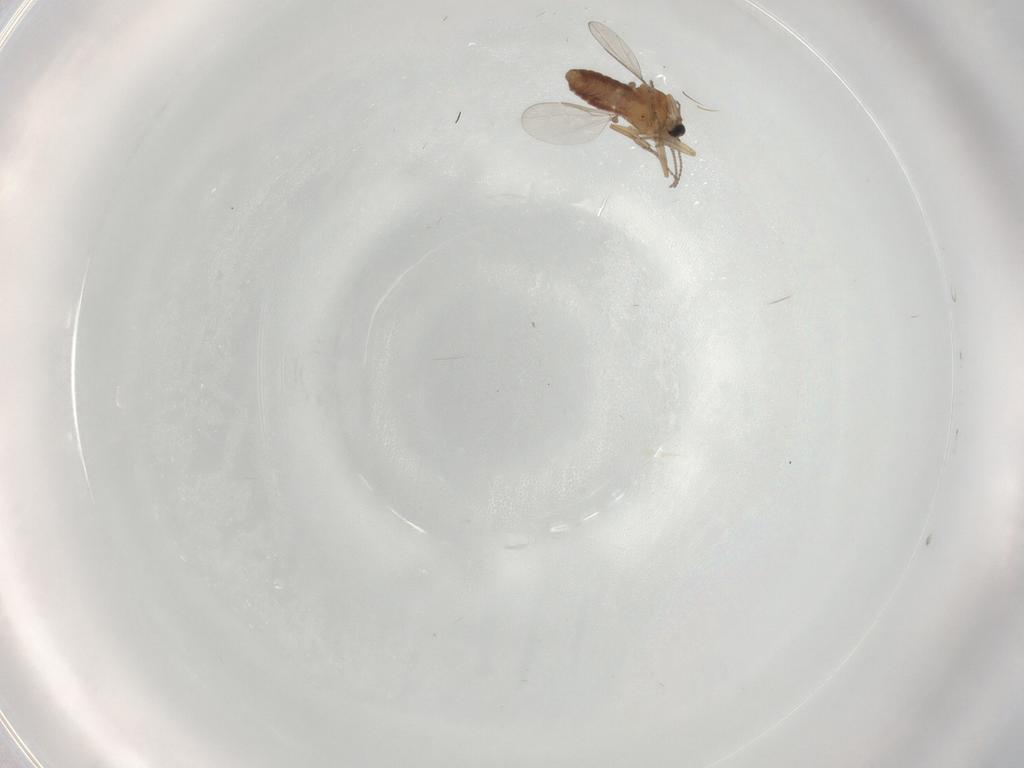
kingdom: Animalia
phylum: Arthropoda
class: Insecta
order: Diptera
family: Ceratopogonidae
